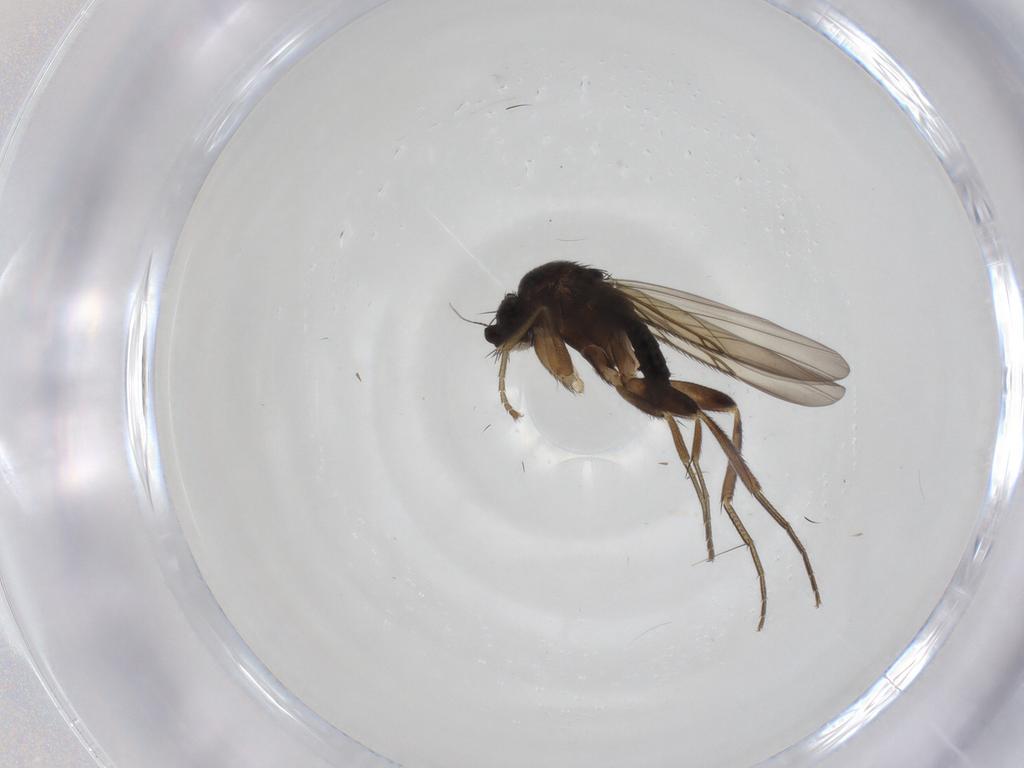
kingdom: Animalia
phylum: Arthropoda
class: Insecta
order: Diptera
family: Phoridae
